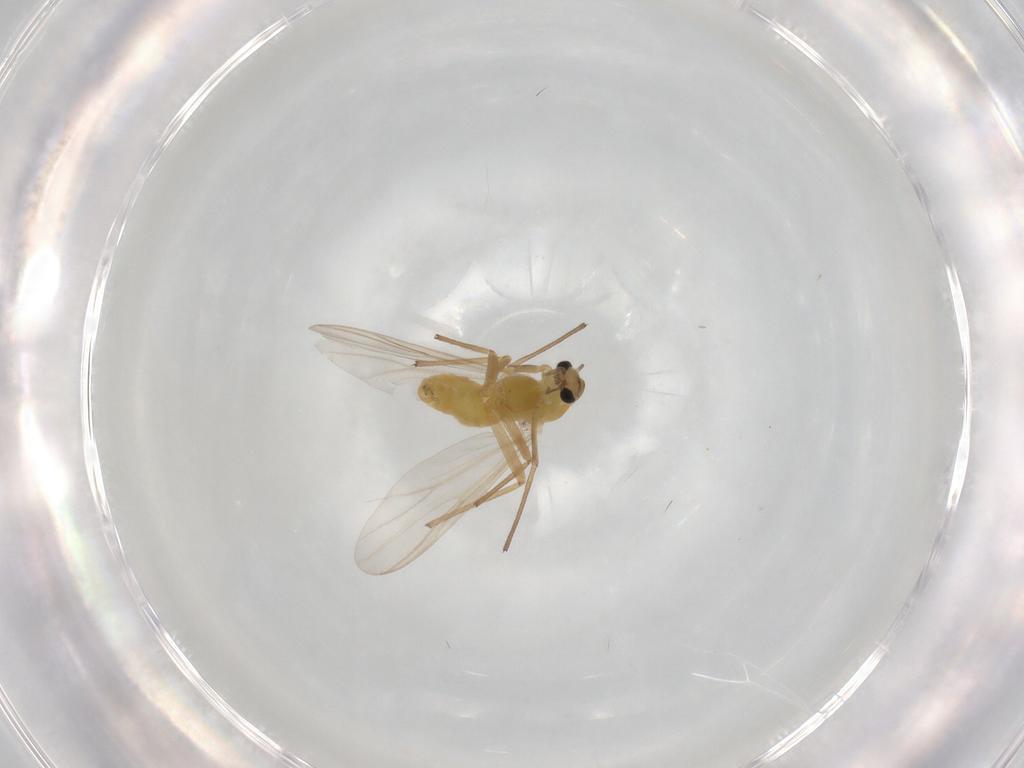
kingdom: Animalia
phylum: Arthropoda
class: Insecta
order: Diptera
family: Chironomidae
